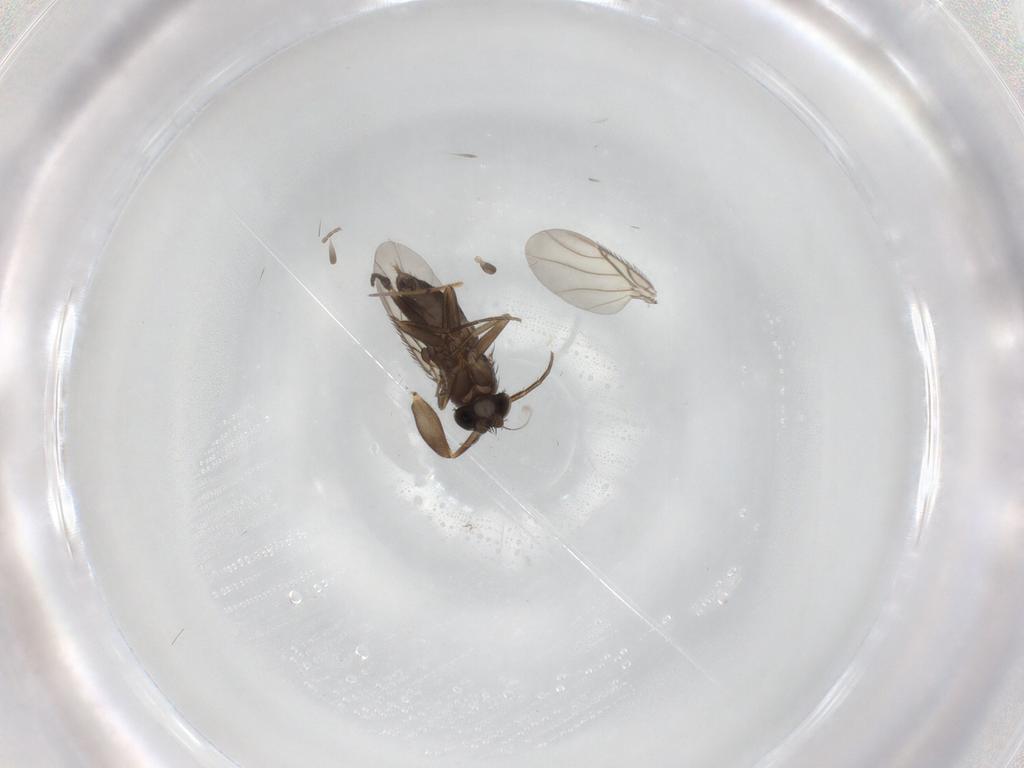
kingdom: Animalia
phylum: Arthropoda
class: Insecta
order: Diptera
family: Phoridae
